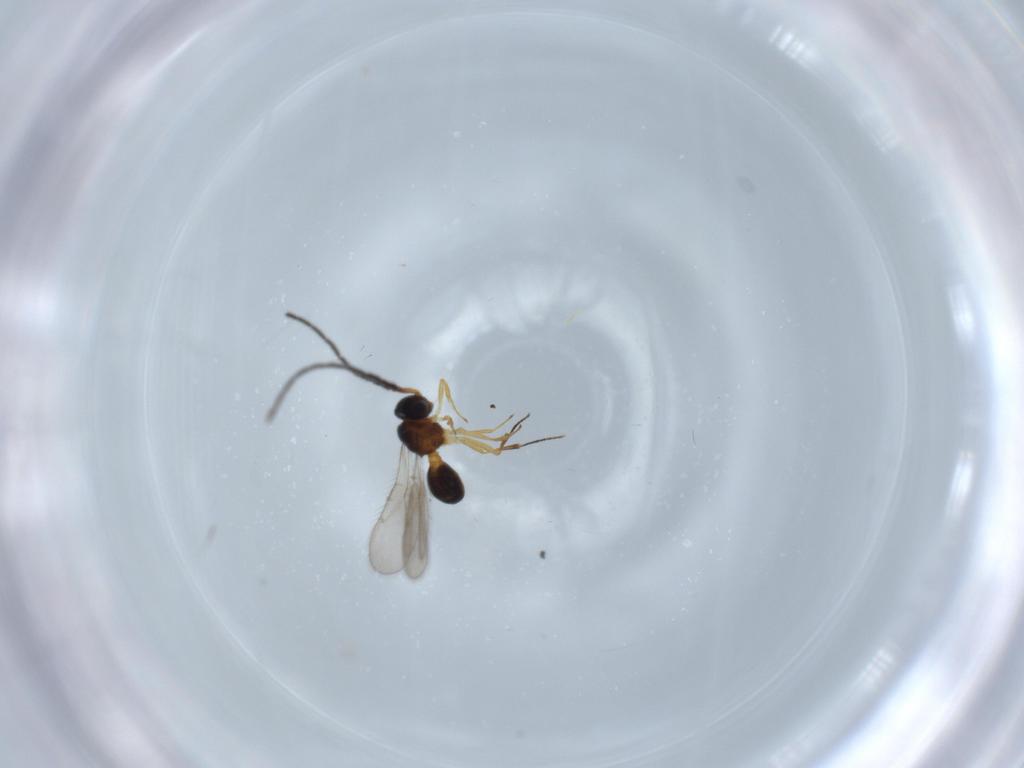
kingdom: Animalia
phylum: Arthropoda
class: Insecta
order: Hymenoptera
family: Scelionidae
